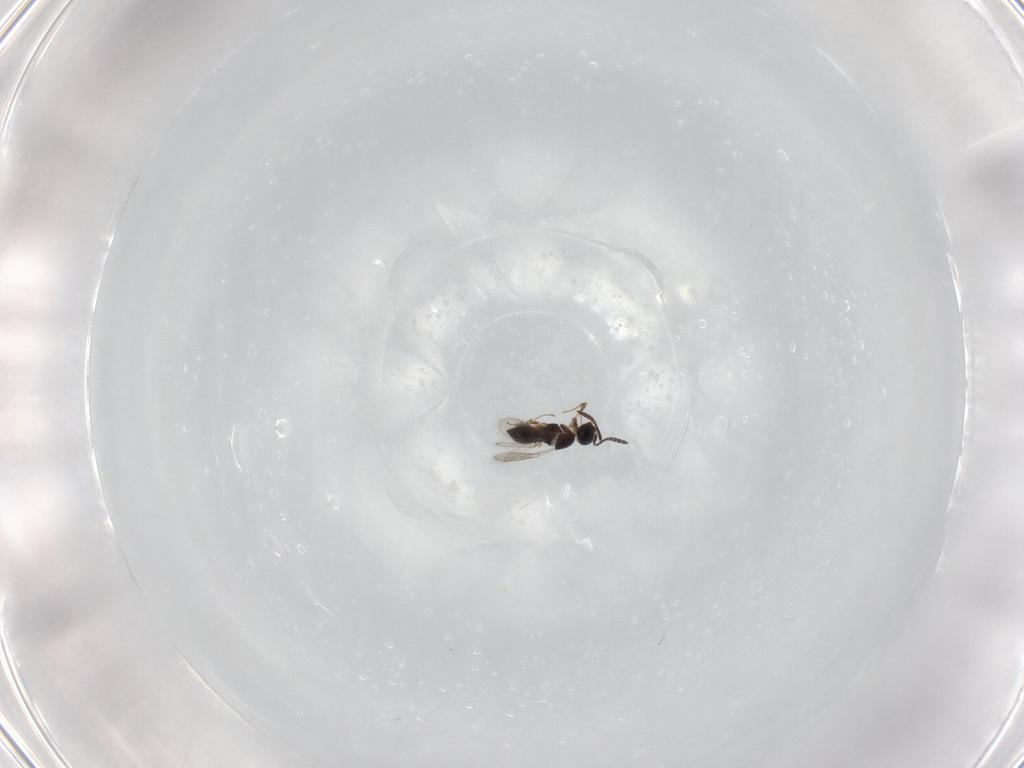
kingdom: Animalia
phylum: Arthropoda
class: Insecta
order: Hymenoptera
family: Scelionidae
